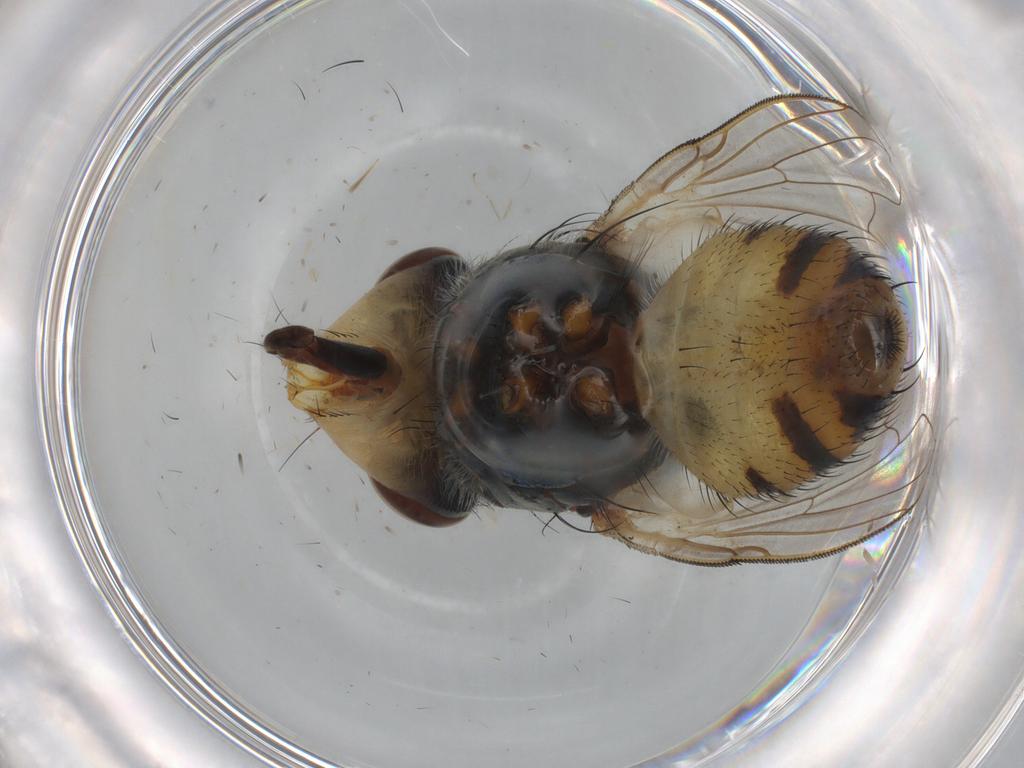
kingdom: Animalia
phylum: Arthropoda
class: Insecta
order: Diptera
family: Calliphoridae
